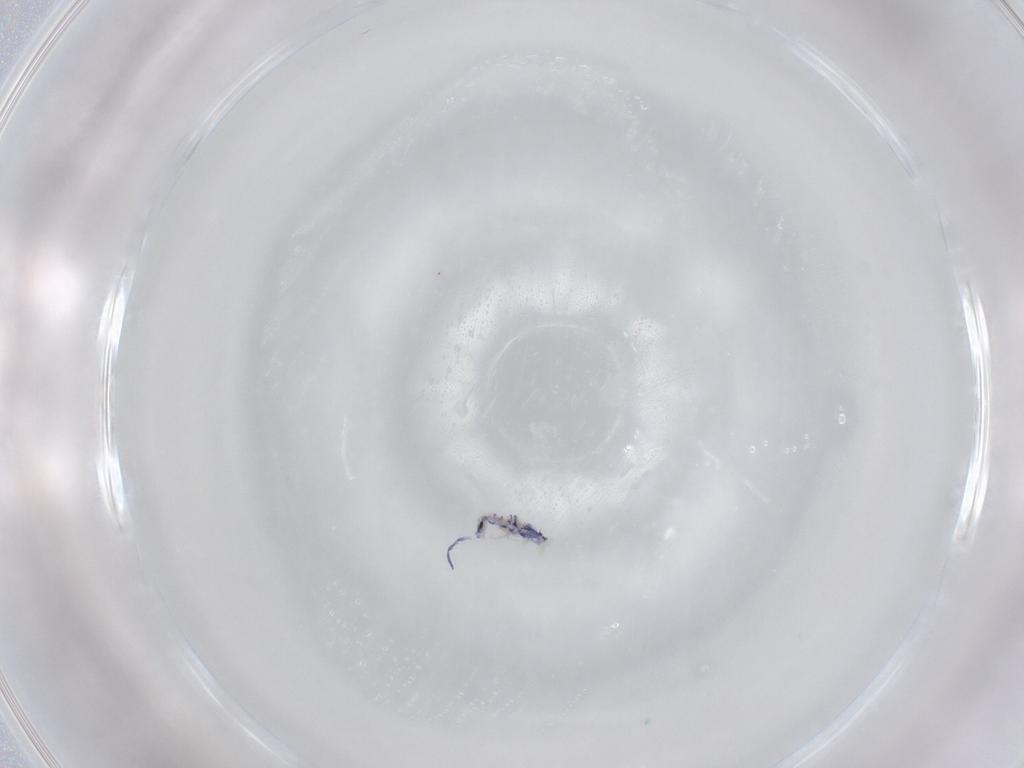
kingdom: Animalia
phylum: Arthropoda
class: Collembola
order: Entomobryomorpha
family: Entomobryidae
